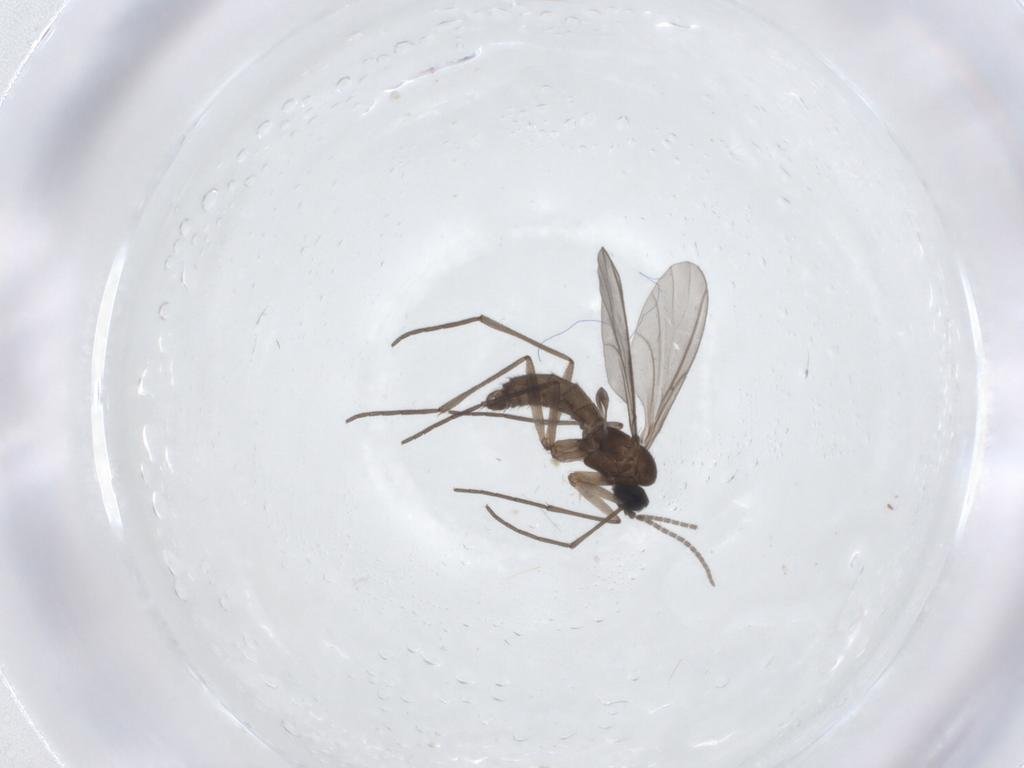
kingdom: Animalia
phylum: Arthropoda
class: Insecta
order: Diptera
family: Sciaridae
